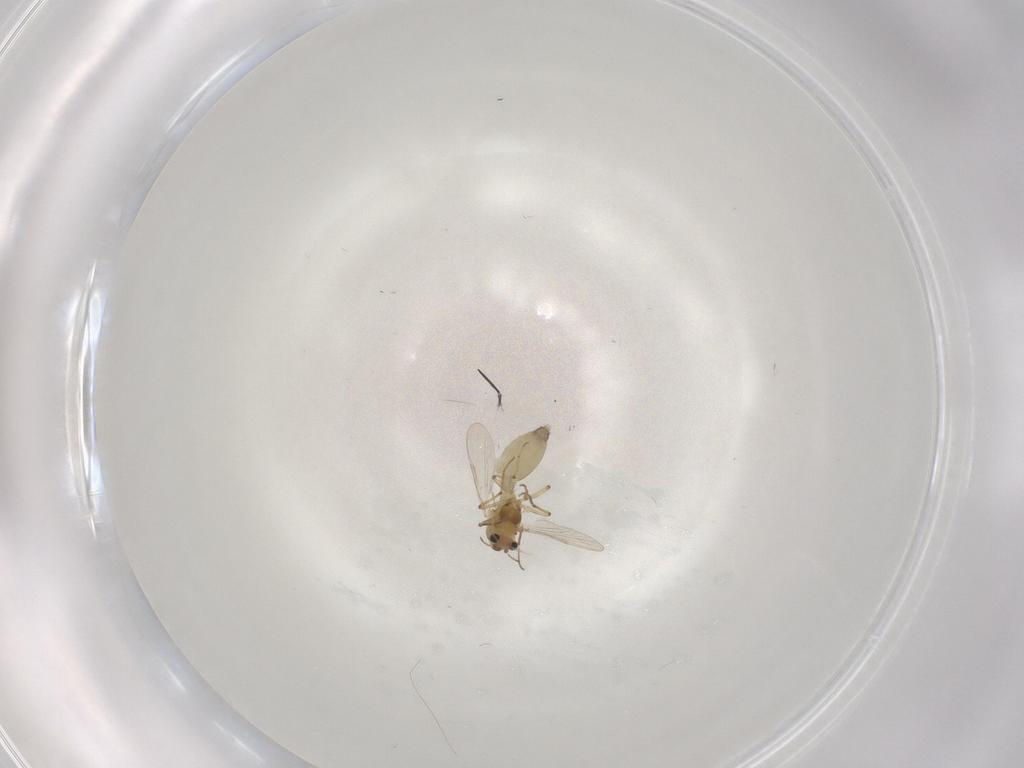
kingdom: Animalia
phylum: Arthropoda
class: Insecta
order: Diptera
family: Chironomidae
